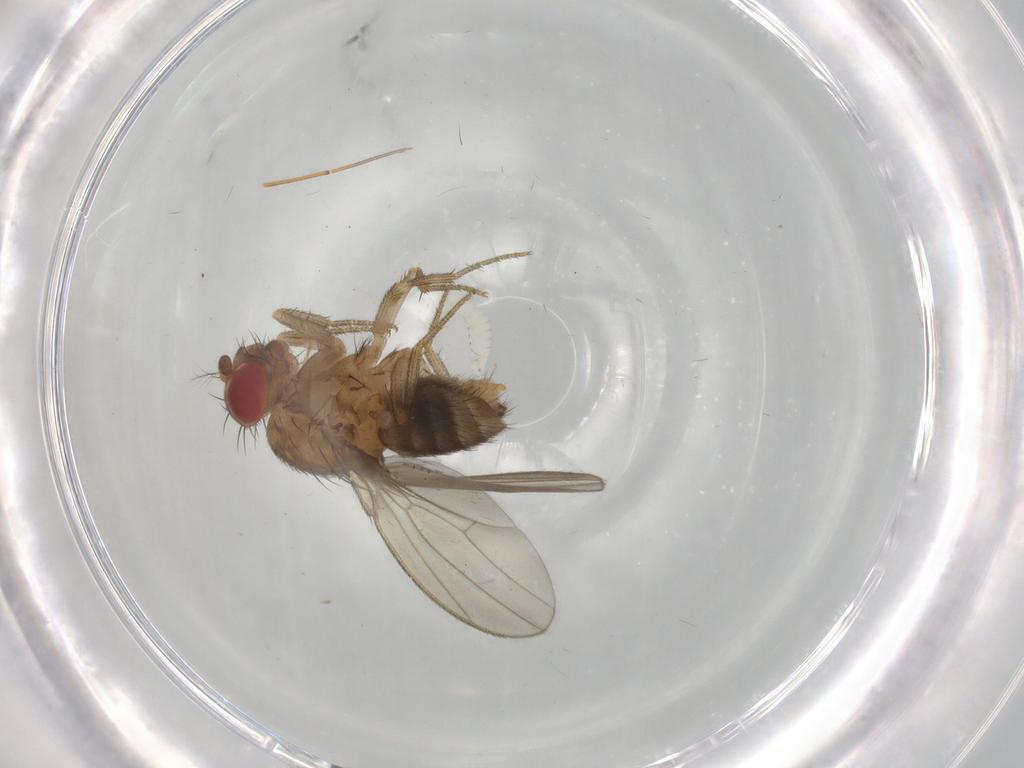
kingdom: Animalia
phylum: Arthropoda
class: Insecta
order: Diptera
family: Drosophilidae
